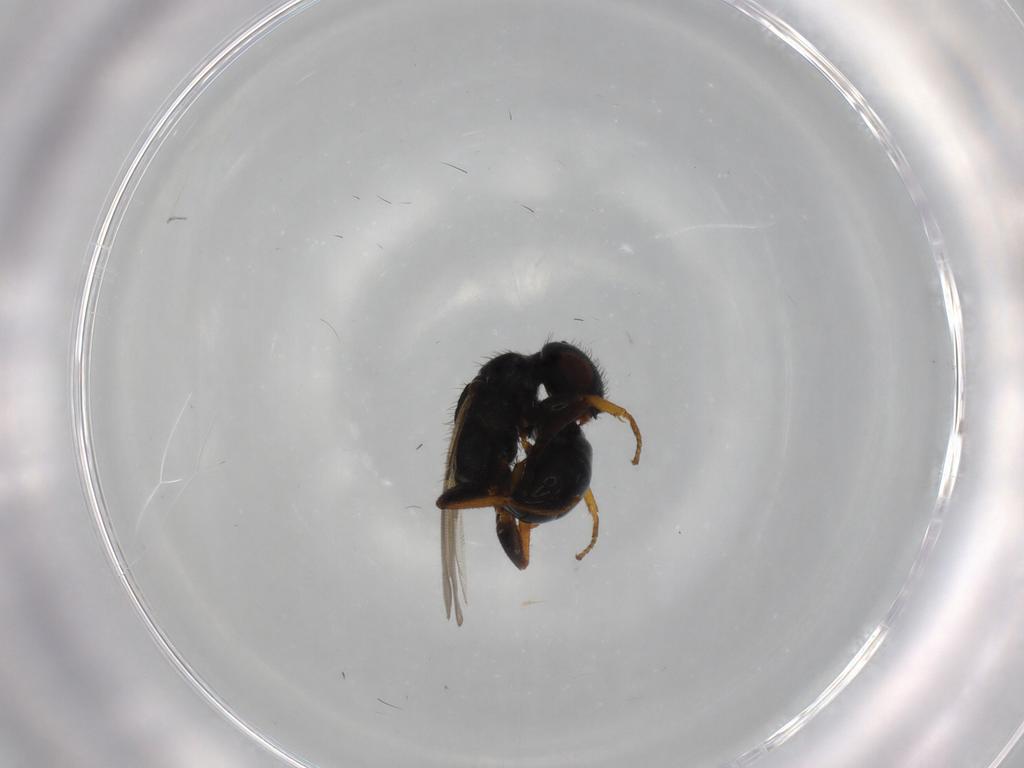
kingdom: Animalia
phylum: Arthropoda
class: Insecta
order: Hymenoptera
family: Bethylidae
